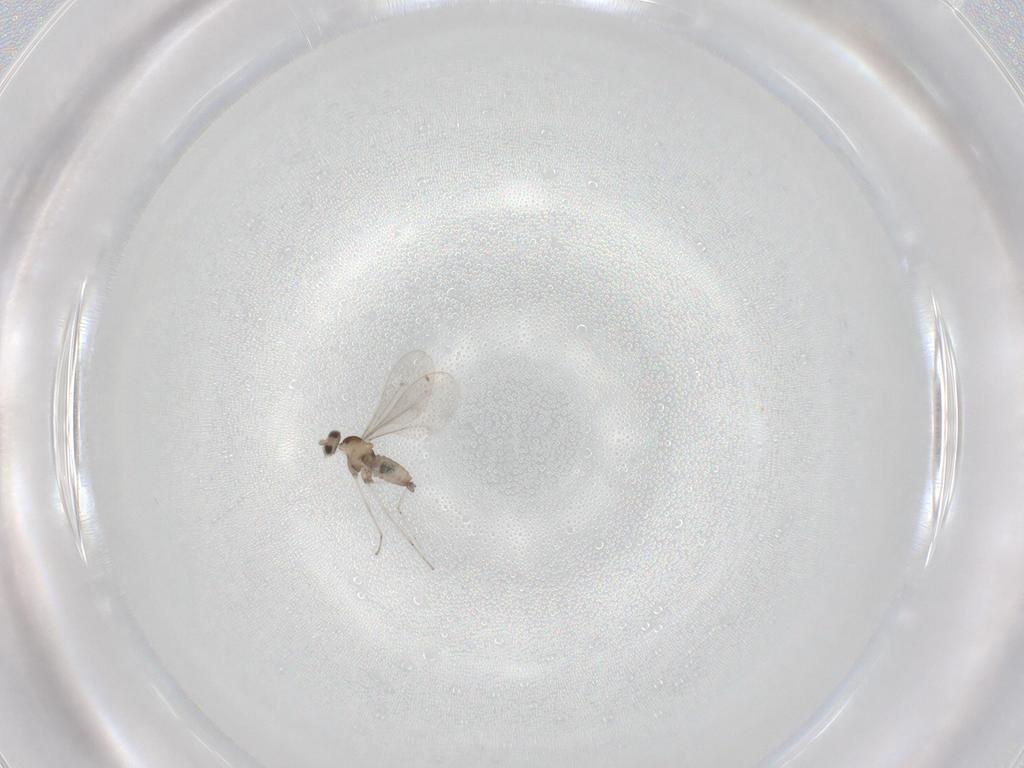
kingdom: Animalia
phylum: Arthropoda
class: Insecta
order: Diptera
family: Cecidomyiidae
